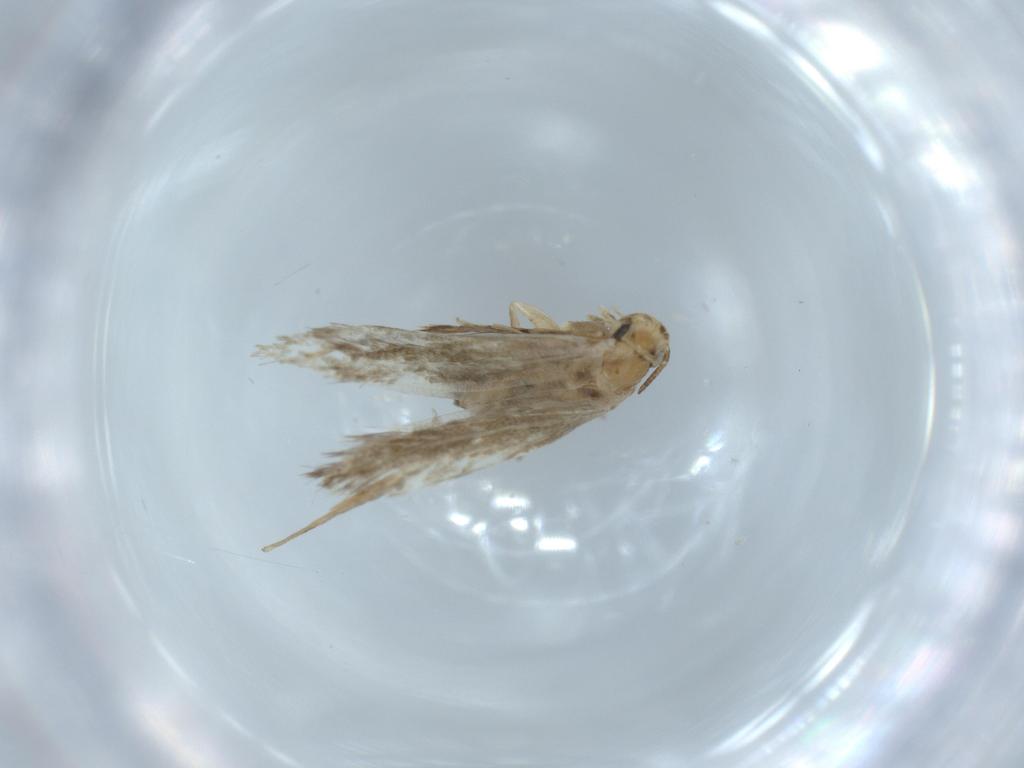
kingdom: Animalia
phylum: Arthropoda
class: Insecta
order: Lepidoptera
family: Tineidae
